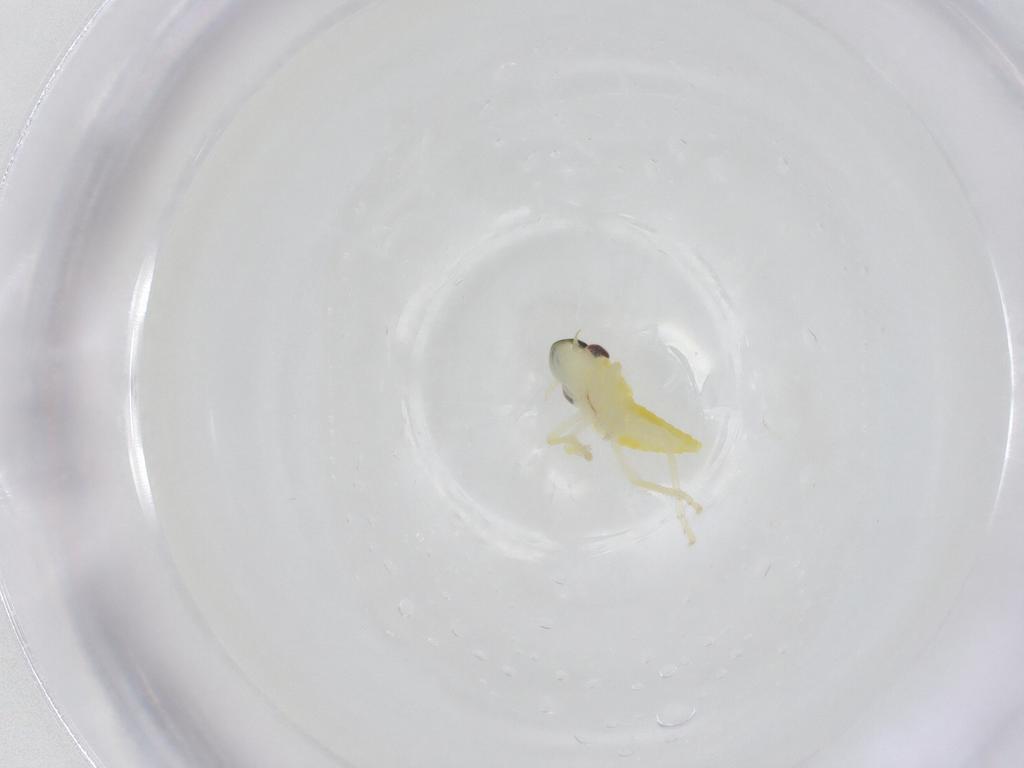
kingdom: Animalia
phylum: Arthropoda
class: Insecta
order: Hemiptera
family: Cicadellidae
